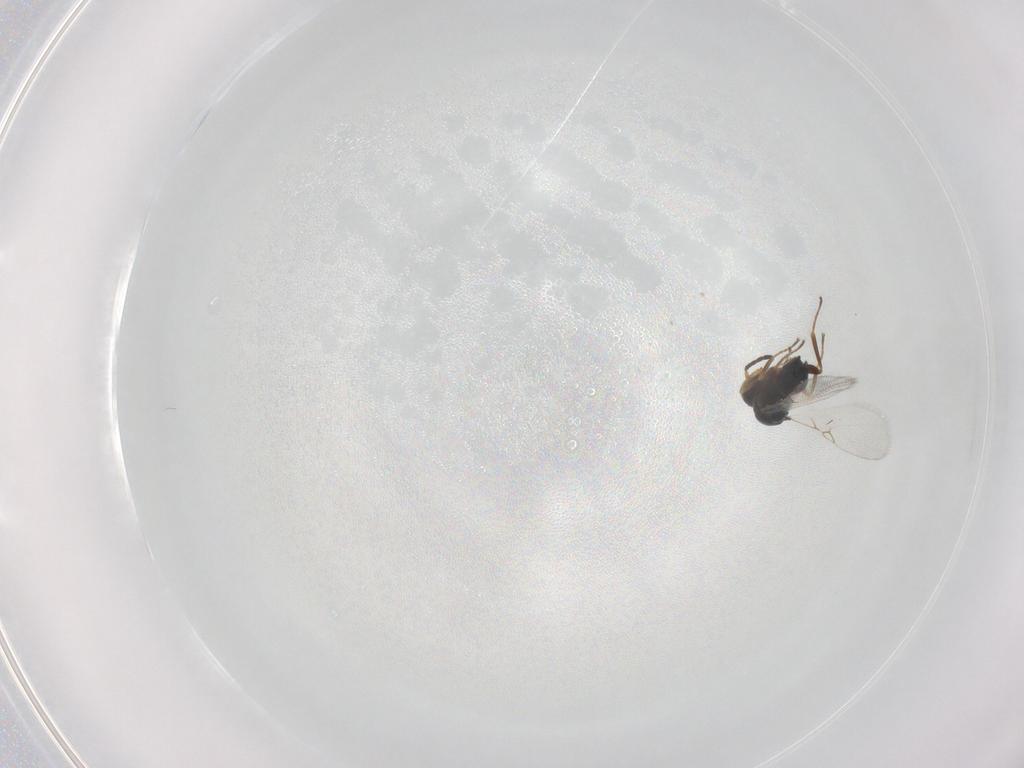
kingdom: Animalia
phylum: Arthropoda
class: Insecta
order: Hymenoptera
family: Figitidae
